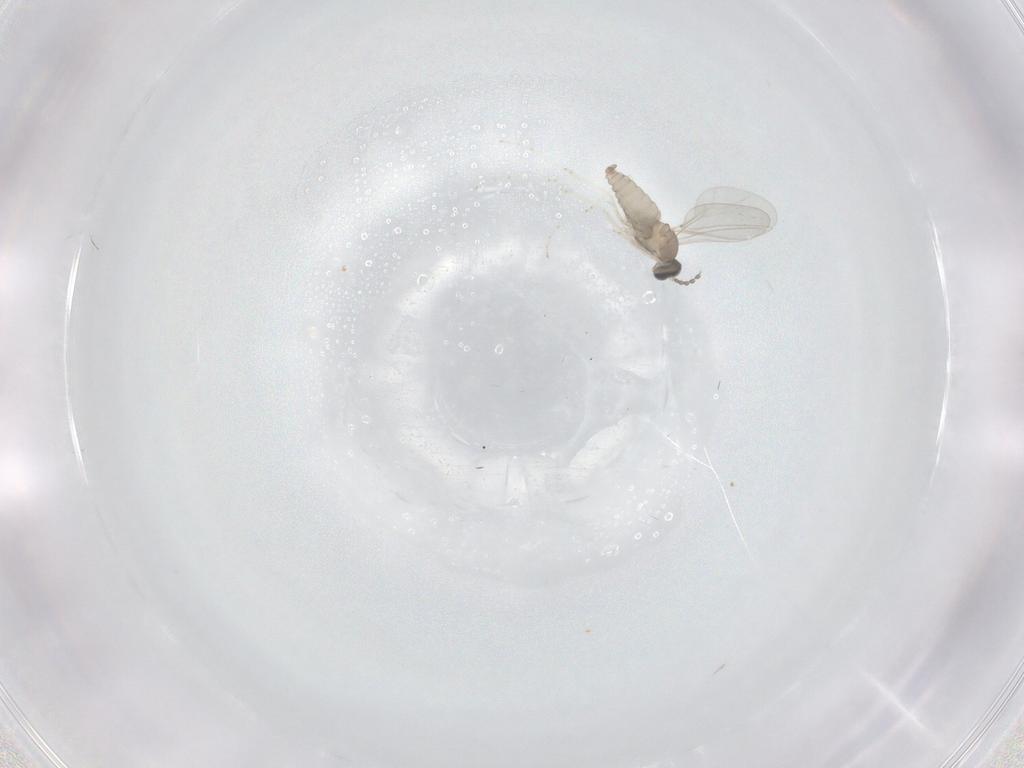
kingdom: Animalia
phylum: Arthropoda
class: Insecta
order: Diptera
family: Cecidomyiidae
